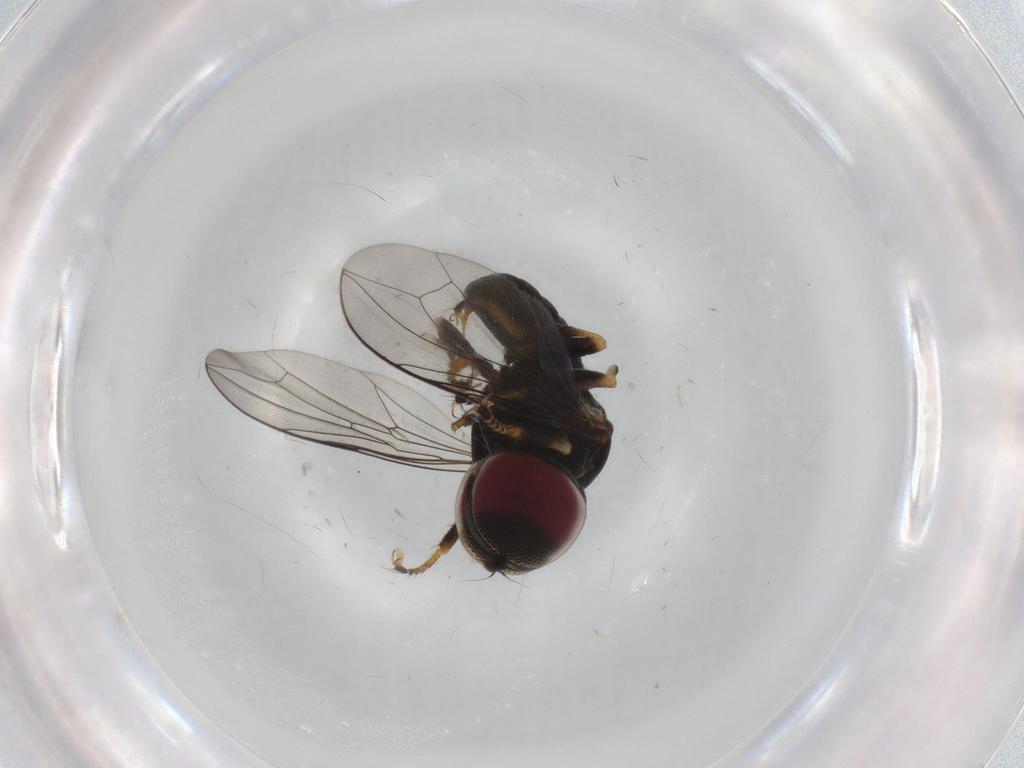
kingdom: Animalia
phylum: Arthropoda
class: Insecta
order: Diptera
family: Pipunculidae
